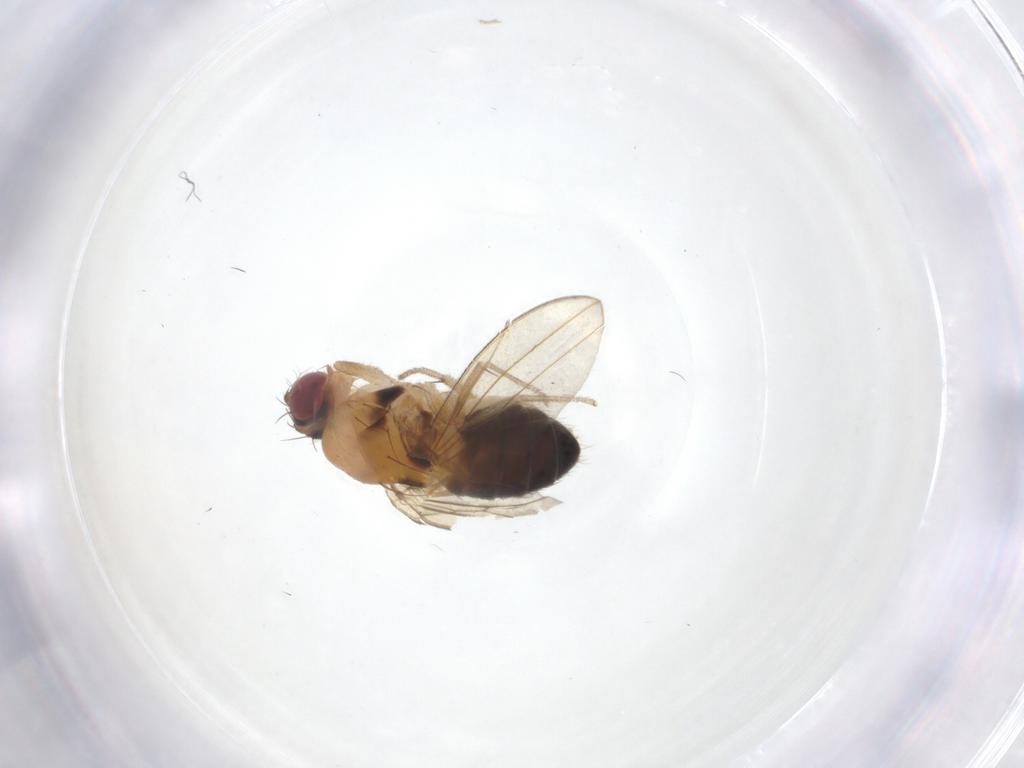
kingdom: Animalia
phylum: Arthropoda
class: Insecta
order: Diptera
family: Drosophilidae
